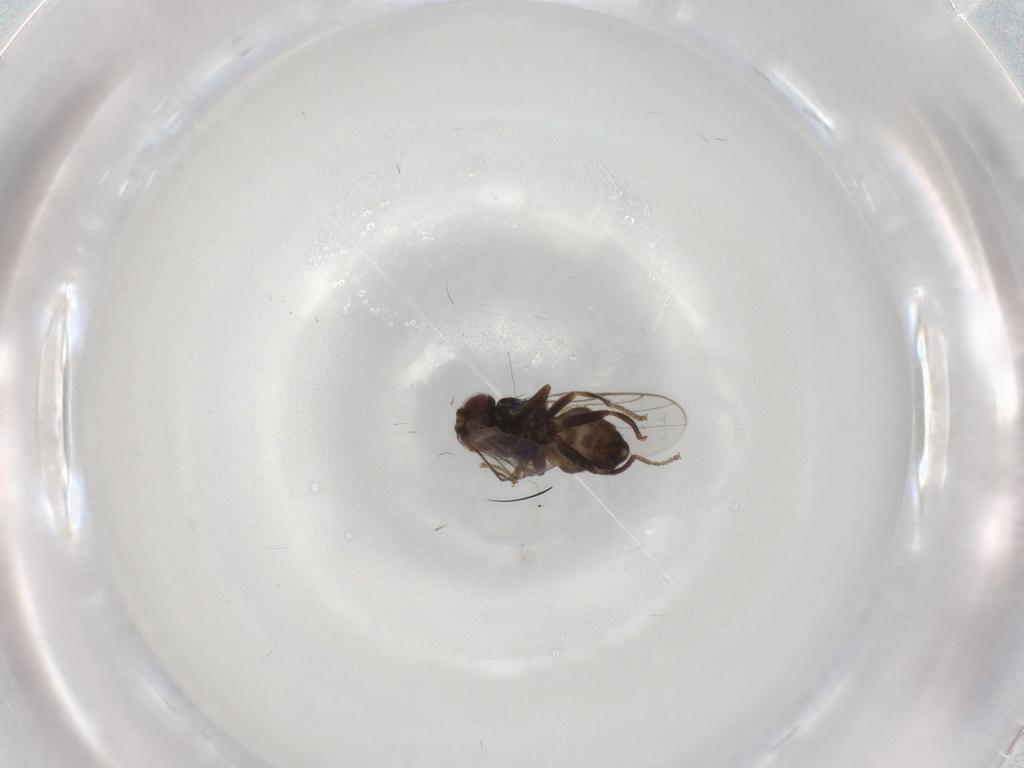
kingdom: Animalia
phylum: Arthropoda
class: Insecta
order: Diptera
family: Chloropidae
